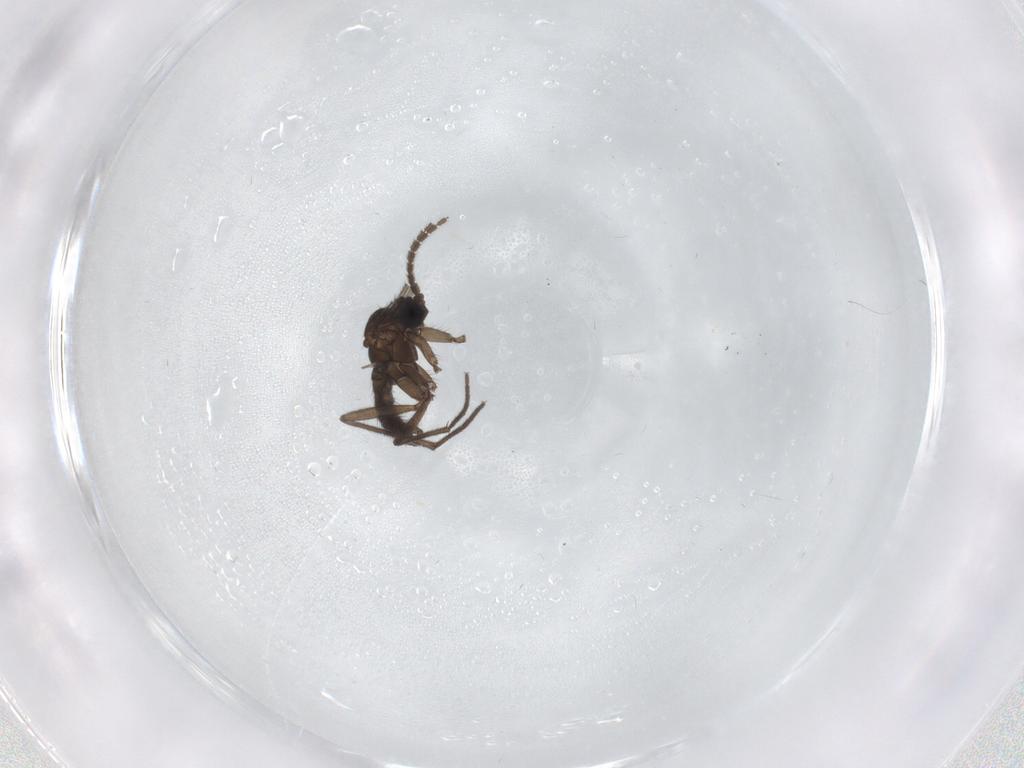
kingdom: Animalia
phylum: Arthropoda
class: Insecta
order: Diptera
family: Sciaridae
